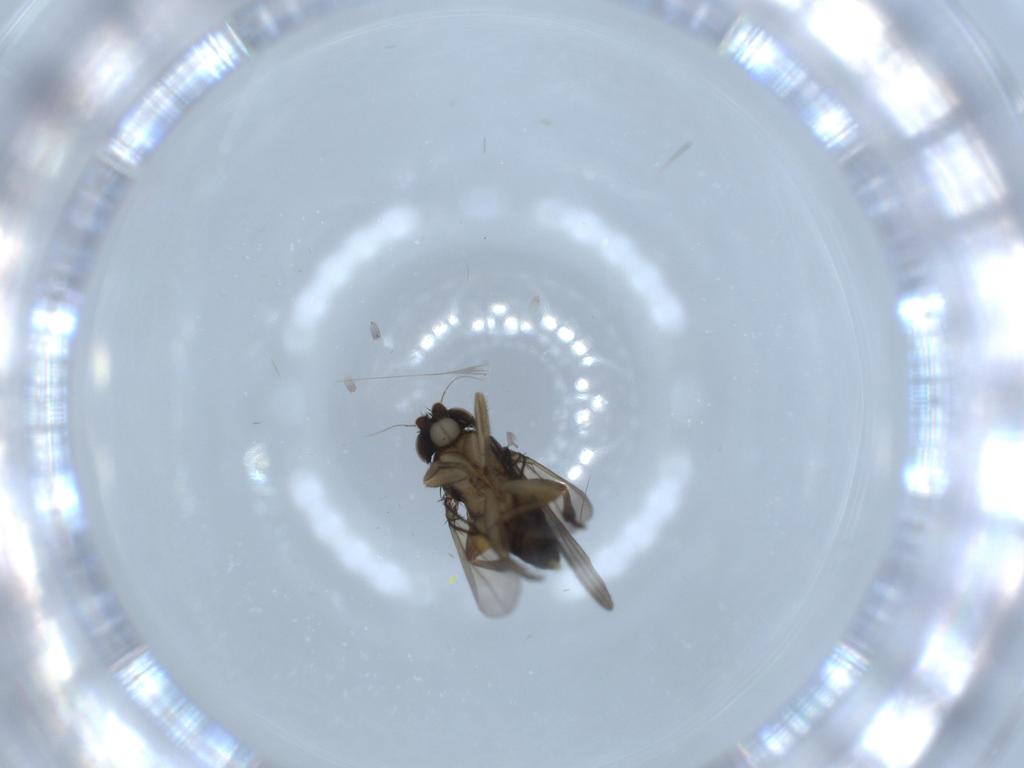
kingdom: Animalia
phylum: Arthropoda
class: Insecta
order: Diptera
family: Phoridae
